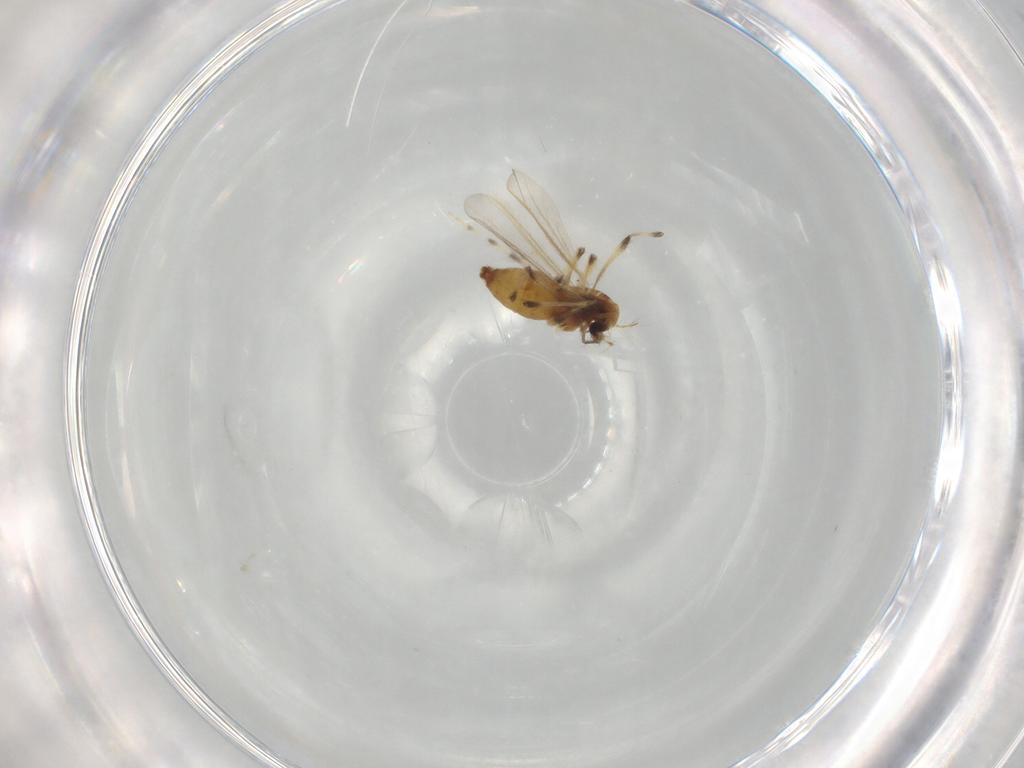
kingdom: Animalia
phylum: Arthropoda
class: Insecta
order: Diptera
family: Chironomidae
